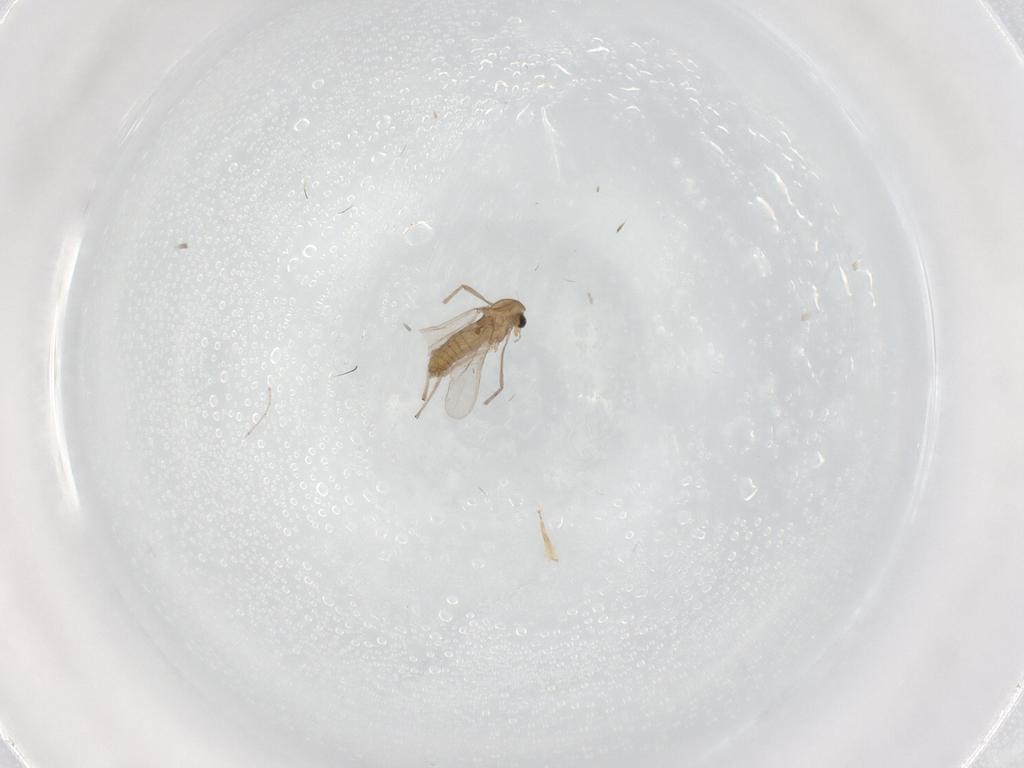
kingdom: Animalia
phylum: Arthropoda
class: Insecta
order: Diptera
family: Chironomidae
